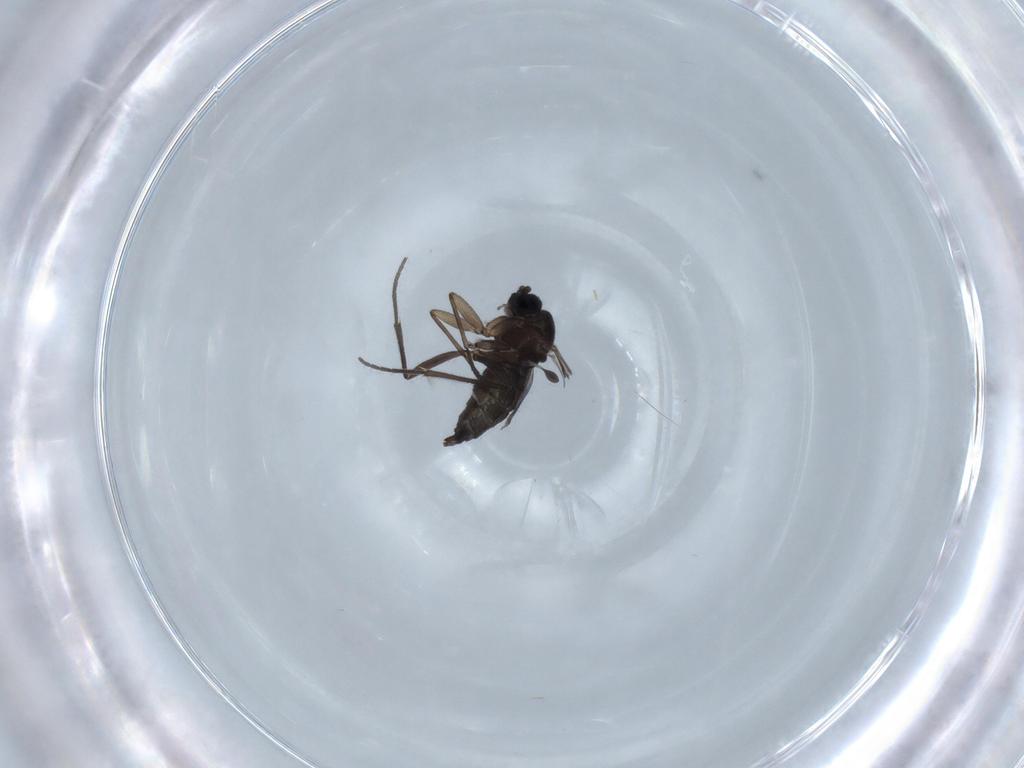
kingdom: Animalia
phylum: Arthropoda
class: Insecta
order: Diptera
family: Sciaridae
